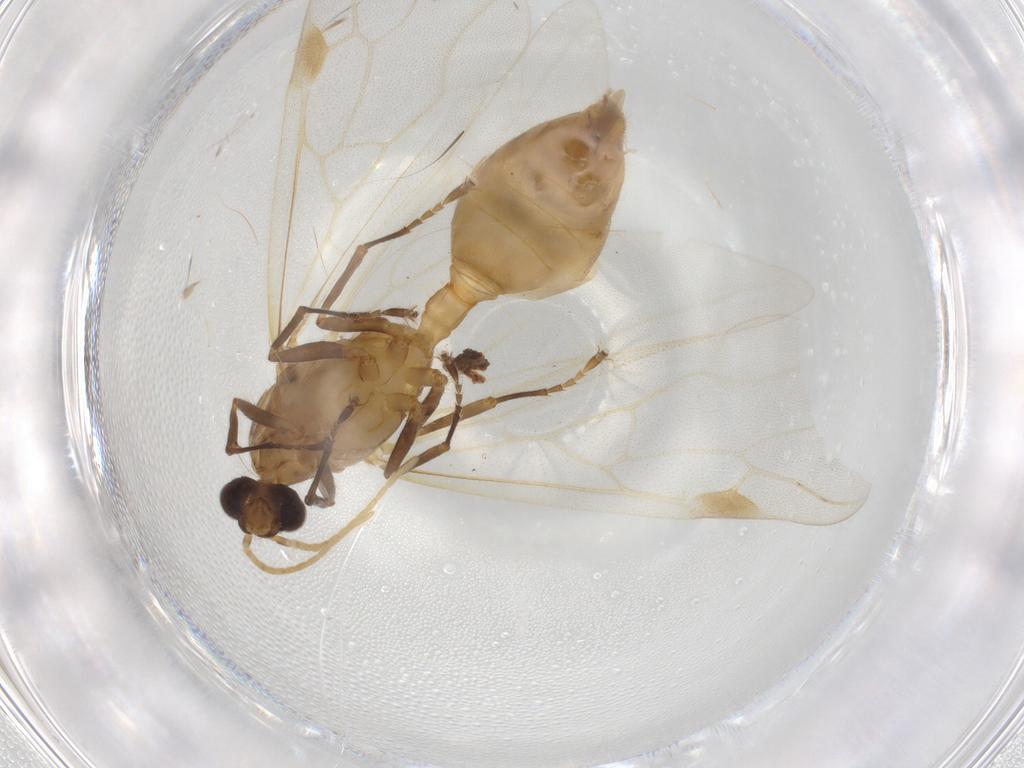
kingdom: Animalia
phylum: Arthropoda
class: Insecta
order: Hymenoptera
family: Formicidae
